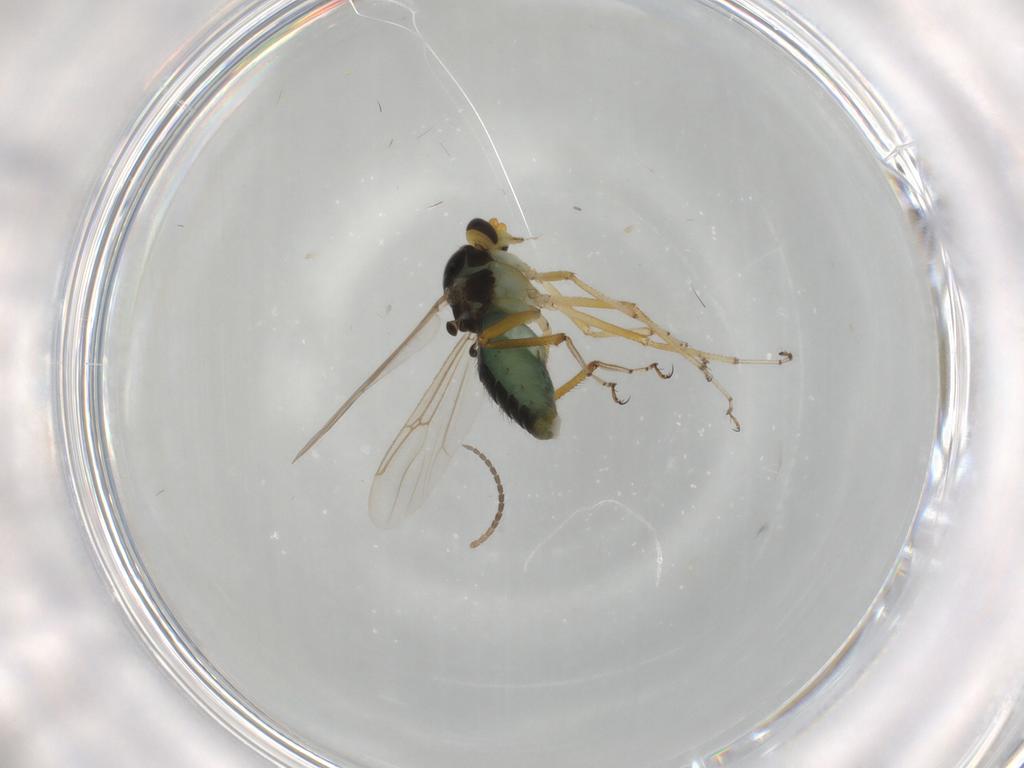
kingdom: Animalia
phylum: Arthropoda
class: Insecta
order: Diptera
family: Ceratopogonidae
